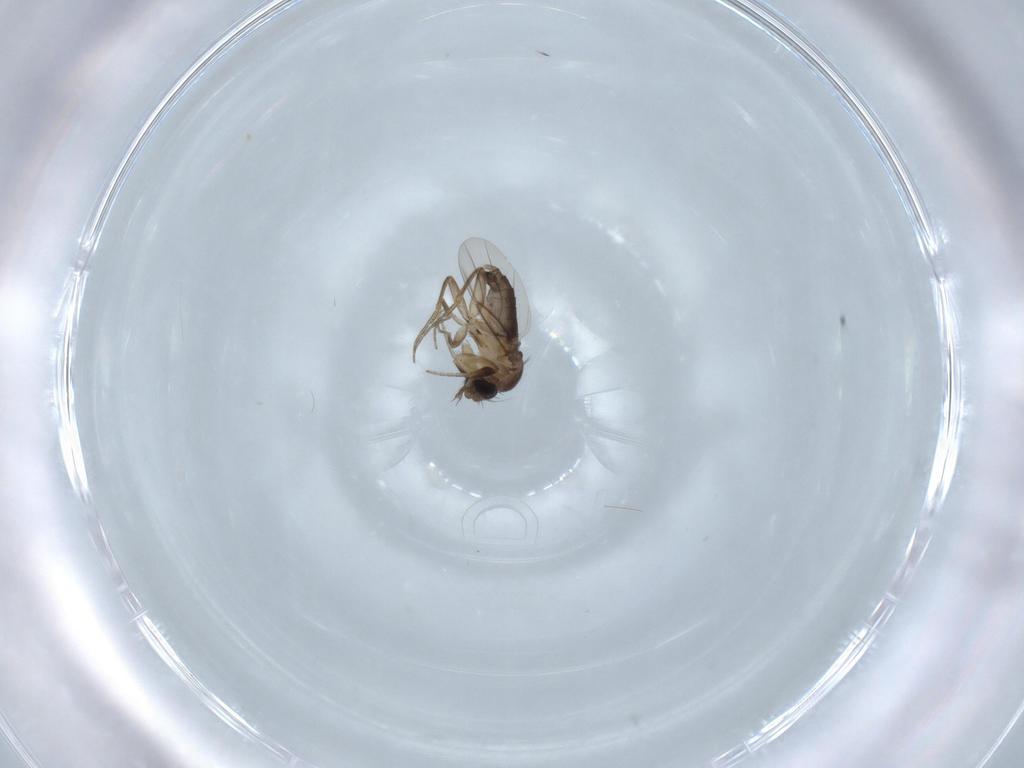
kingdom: Animalia
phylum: Arthropoda
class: Insecta
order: Diptera
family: Phoridae
